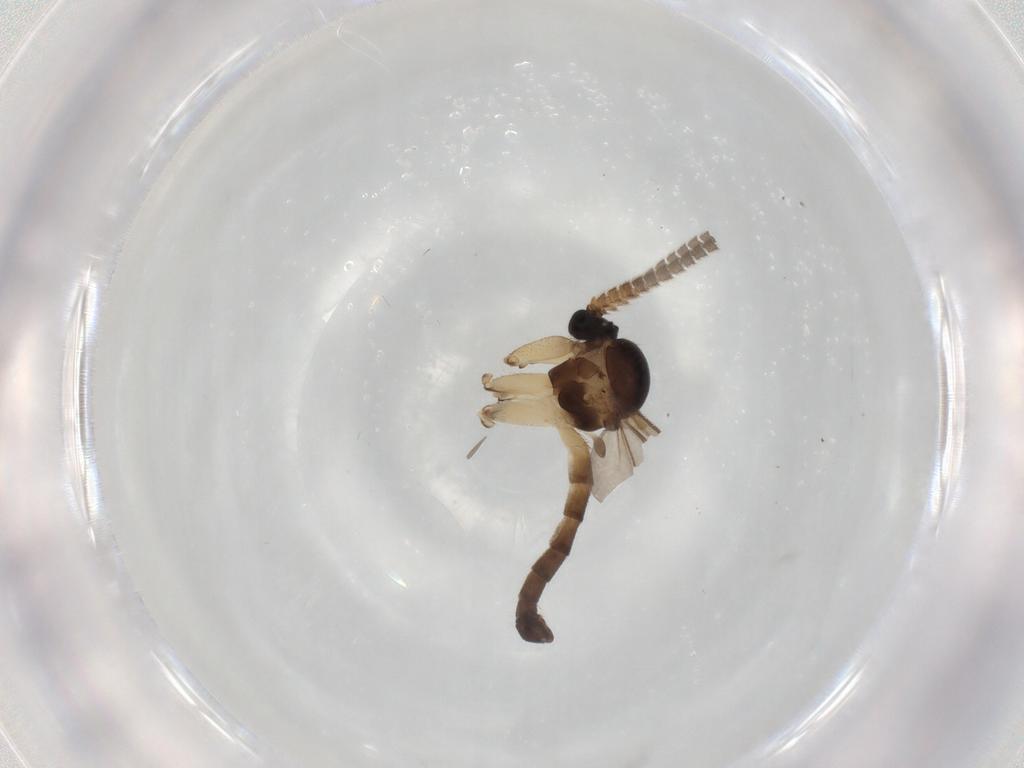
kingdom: Animalia
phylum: Arthropoda
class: Insecta
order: Diptera
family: Mycetophilidae
